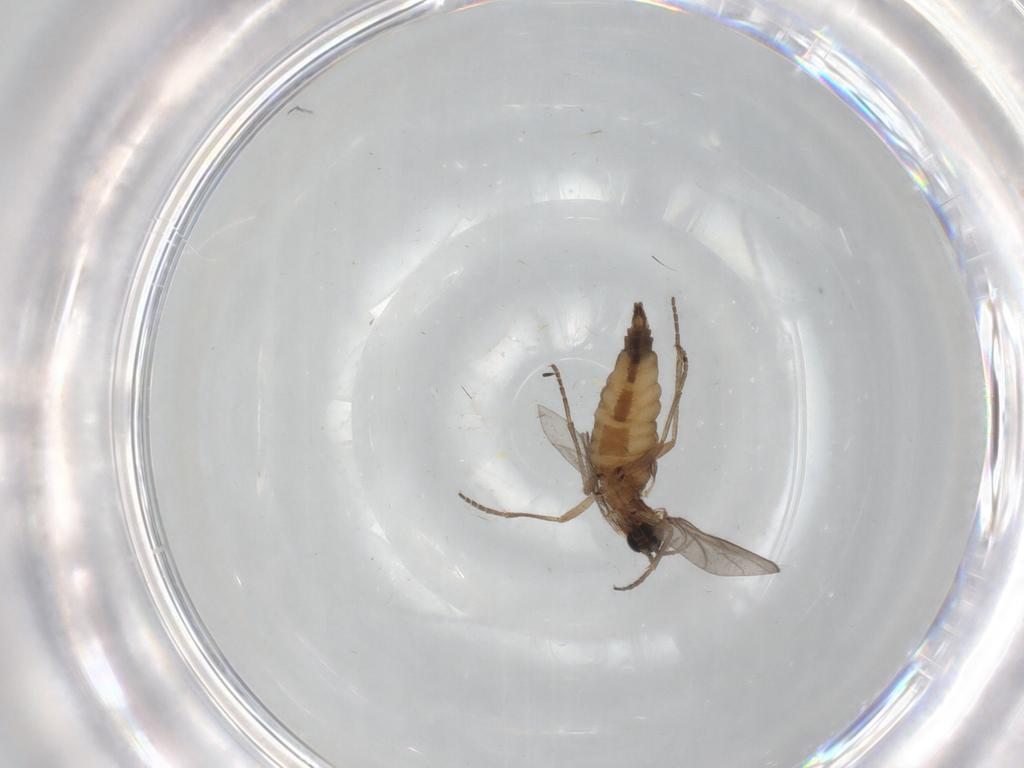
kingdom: Animalia
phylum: Arthropoda
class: Insecta
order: Diptera
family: Sciaridae
